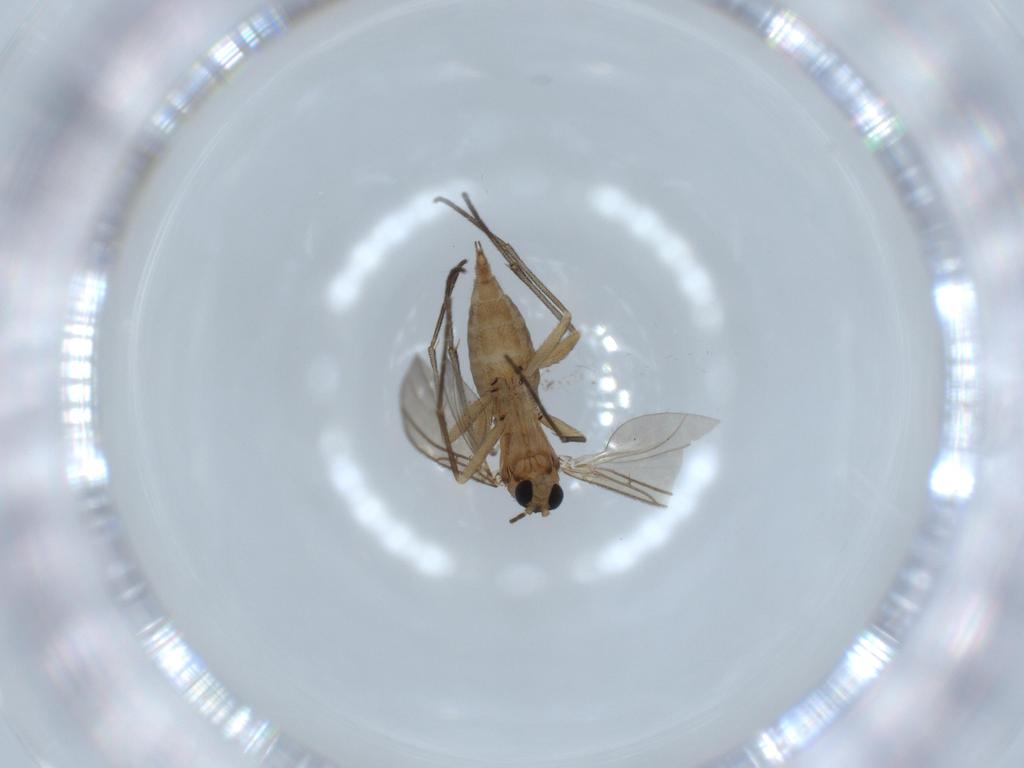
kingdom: Animalia
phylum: Arthropoda
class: Insecta
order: Diptera
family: Sciaridae
